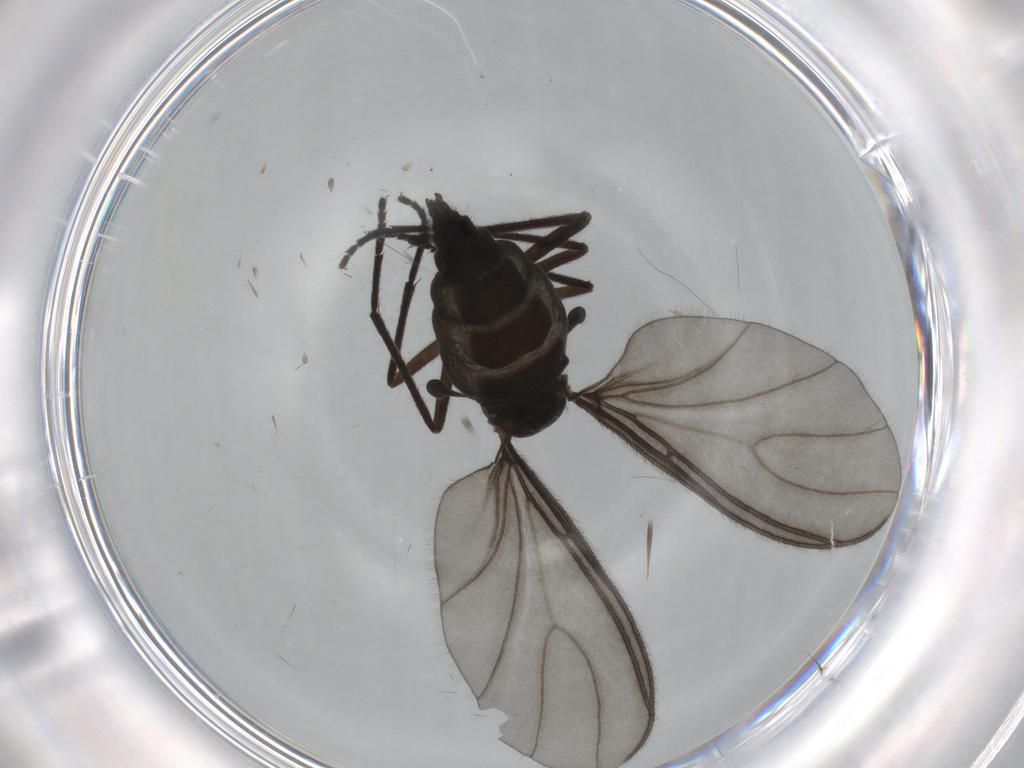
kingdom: Animalia
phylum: Arthropoda
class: Insecta
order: Diptera
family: Sciaridae
